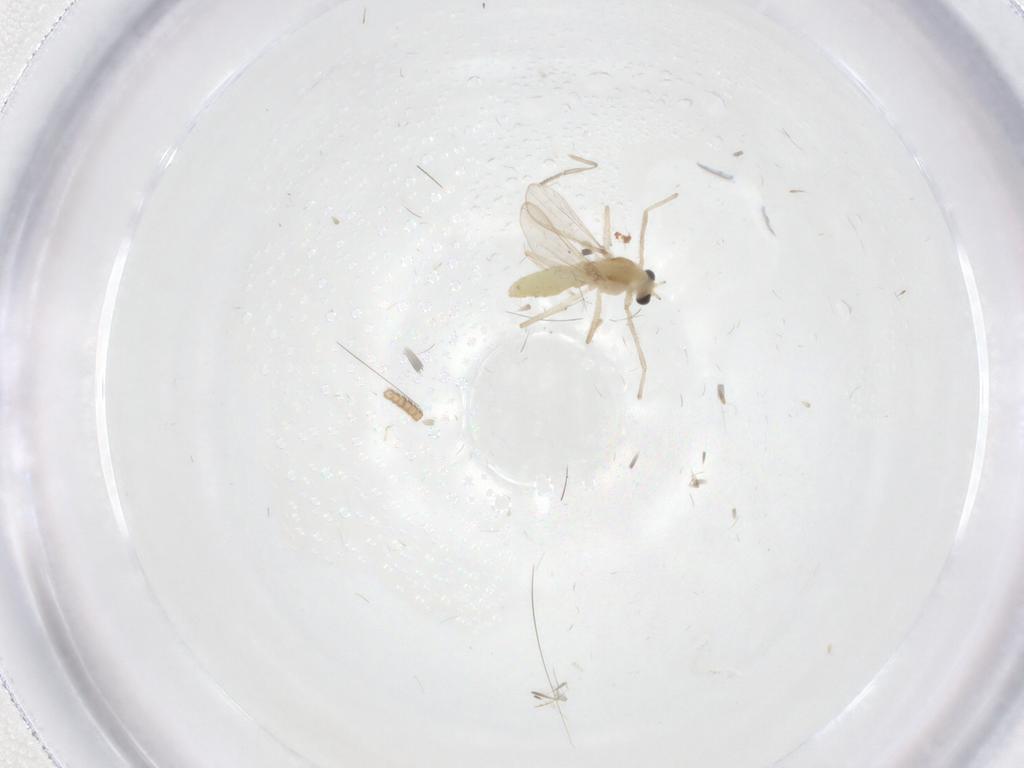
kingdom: Animalia
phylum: Arthropoda
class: Insecta
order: Diptera
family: Chironomidae
